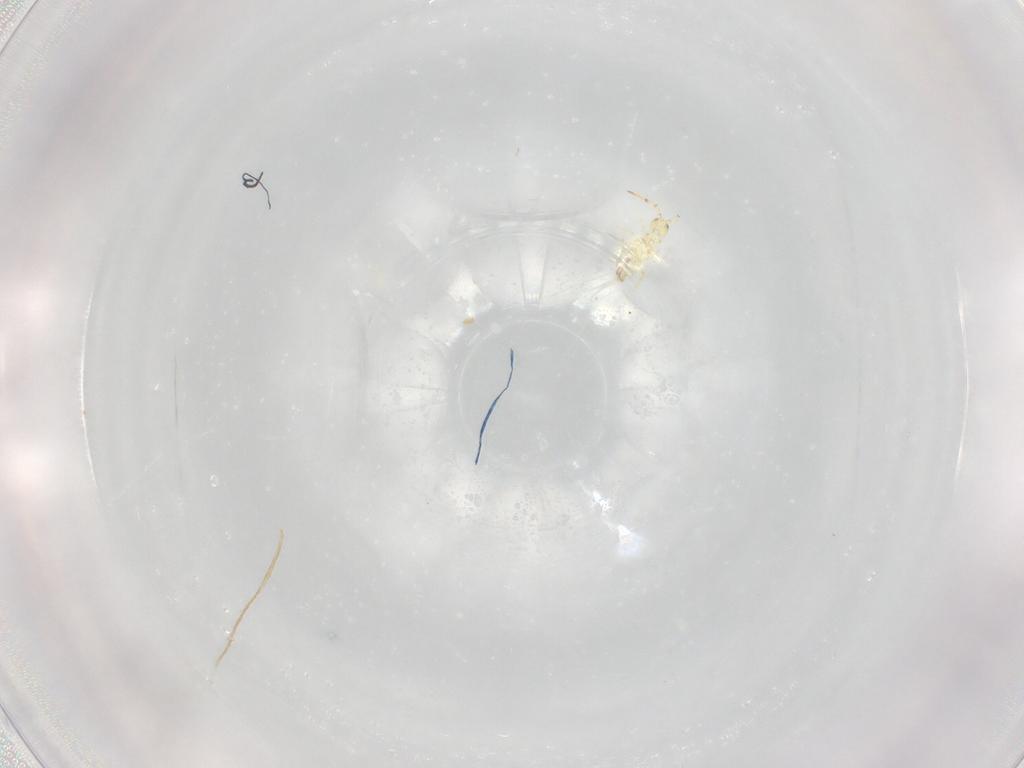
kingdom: Animalia
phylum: Arthropoda
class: Collembola
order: Entomobryomorpha
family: Paronellidae
